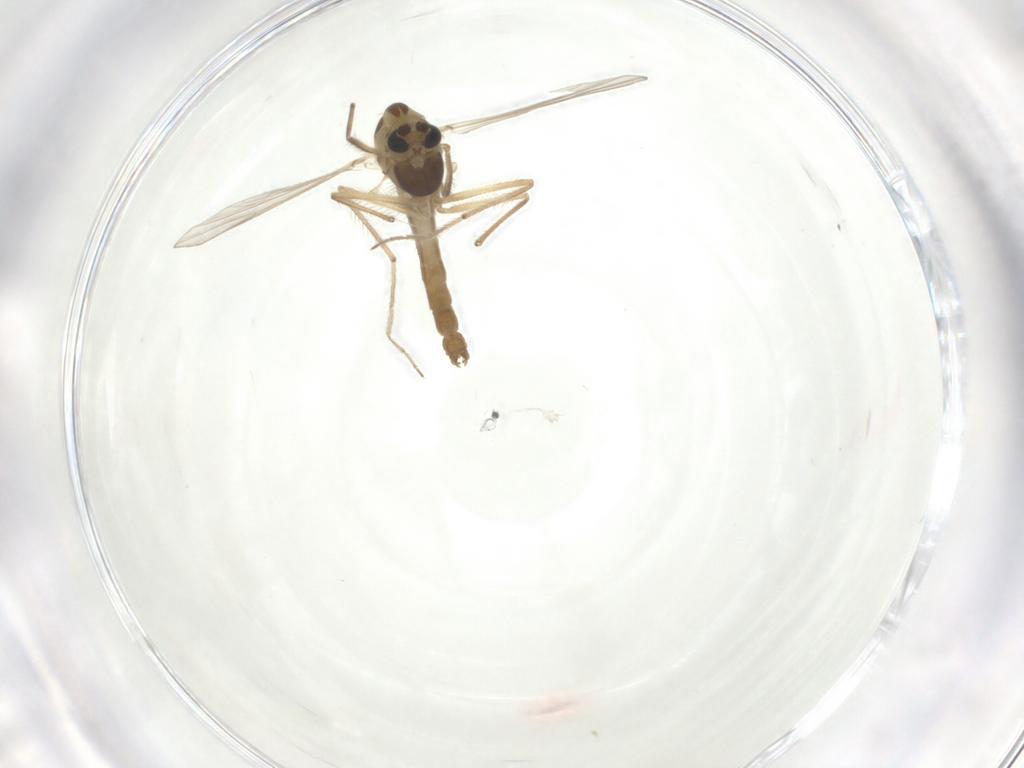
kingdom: Animalia
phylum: Arthropoda
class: Insecta
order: Diptera
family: Chironomidae
